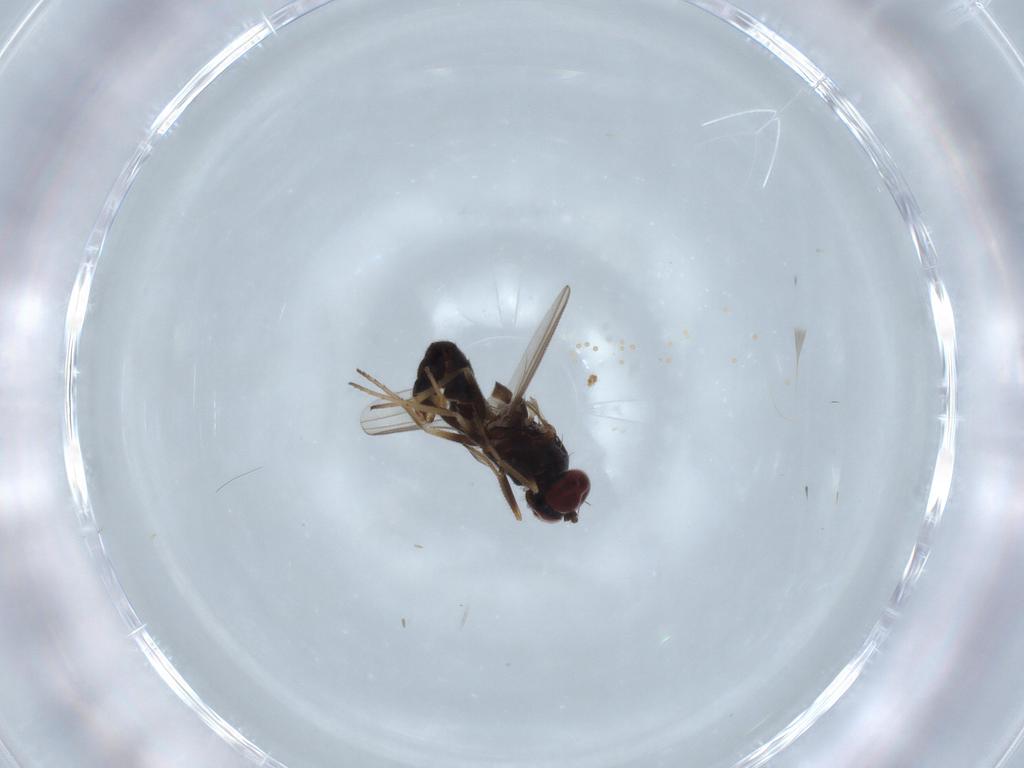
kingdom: Animalia
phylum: Arthropoda
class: Insecta
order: Diptera
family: Dolichopodidae
